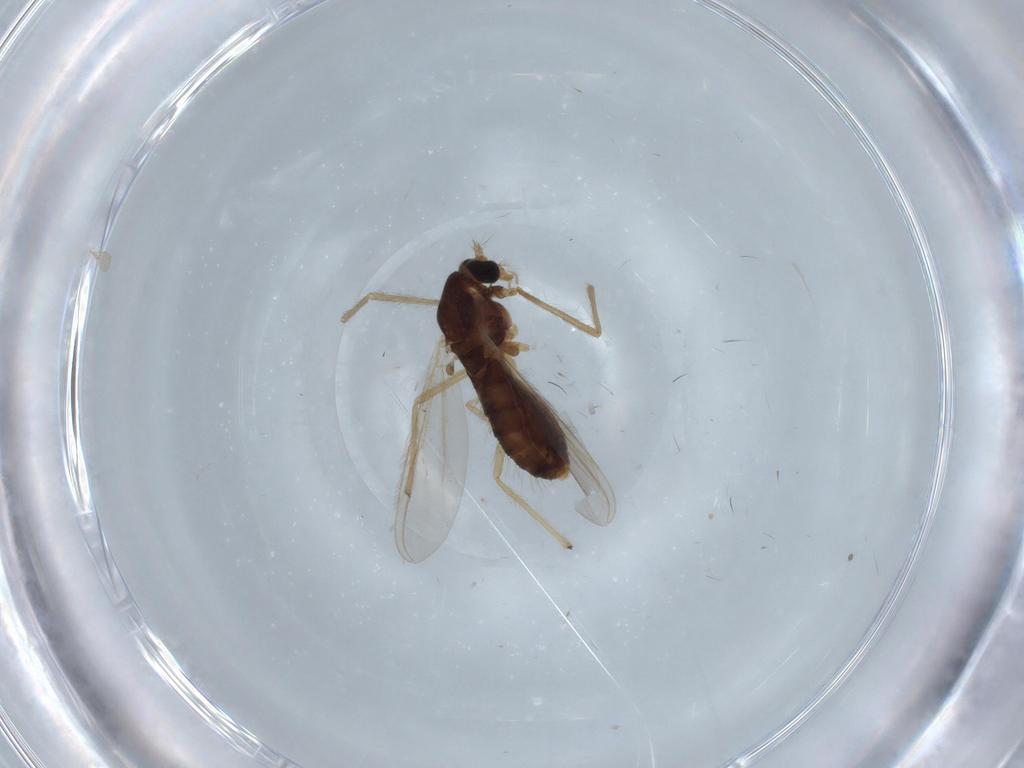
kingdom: Animalia
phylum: Arthropoda
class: Insecta
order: Diptera
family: Chironomidae
